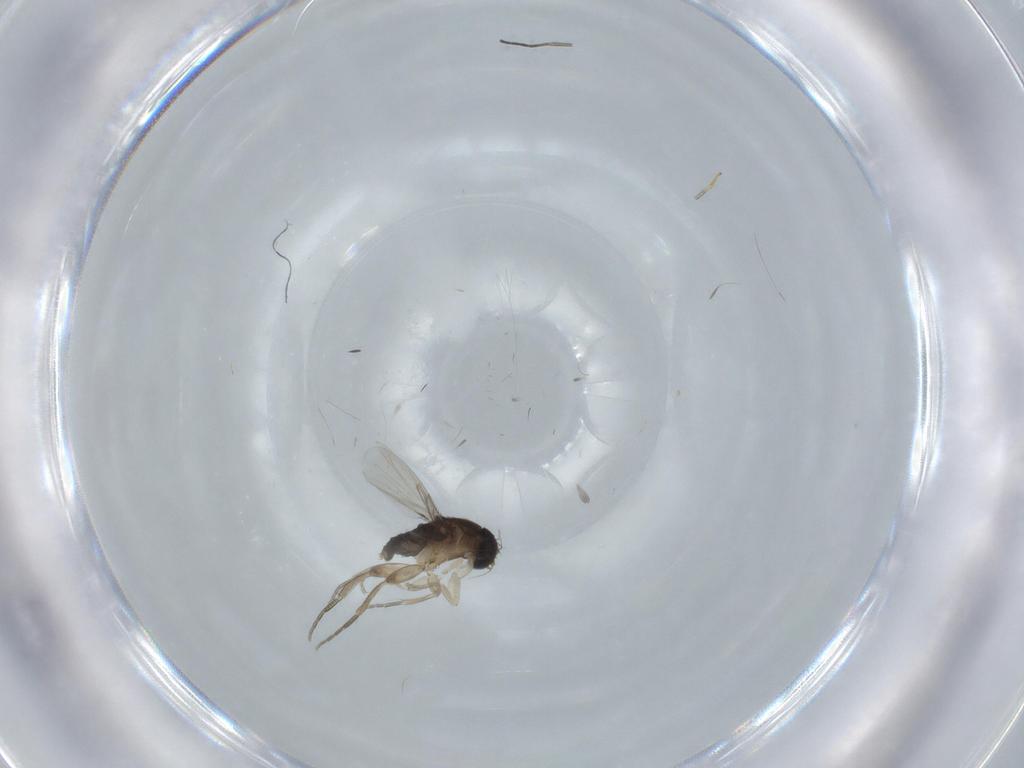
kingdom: Animalia
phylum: Arthropoda
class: Insecta
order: Diptera
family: Phoridae
